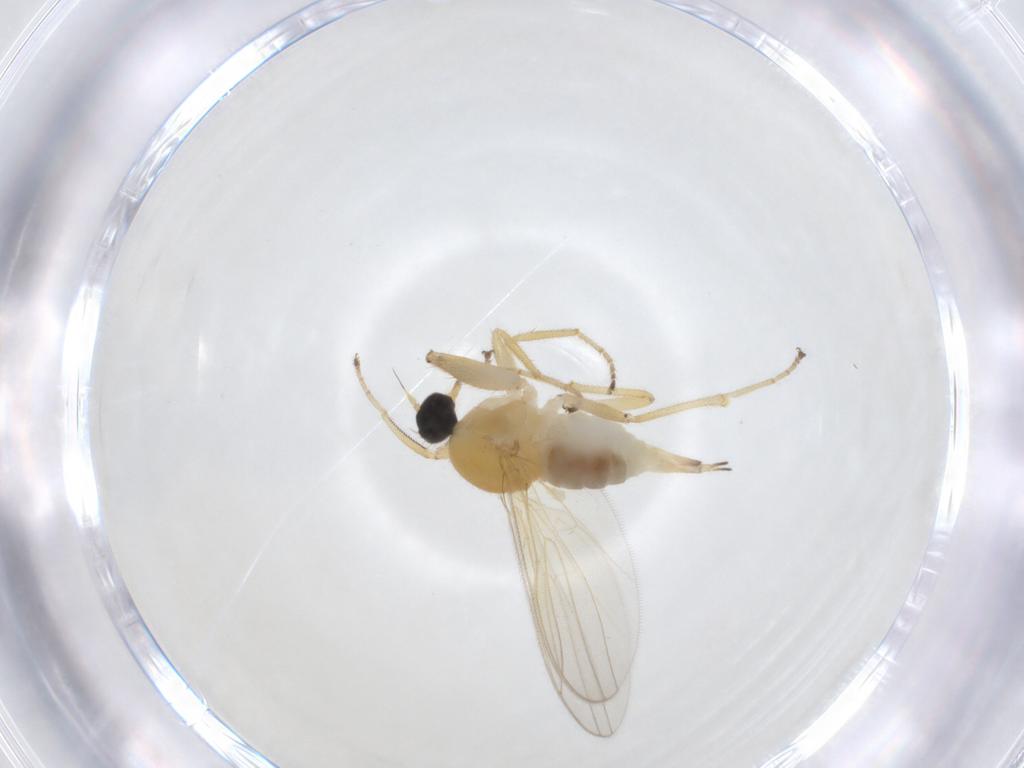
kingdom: Animalia
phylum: Arthropoda
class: Insecta
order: Diptera
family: Hybotidae
